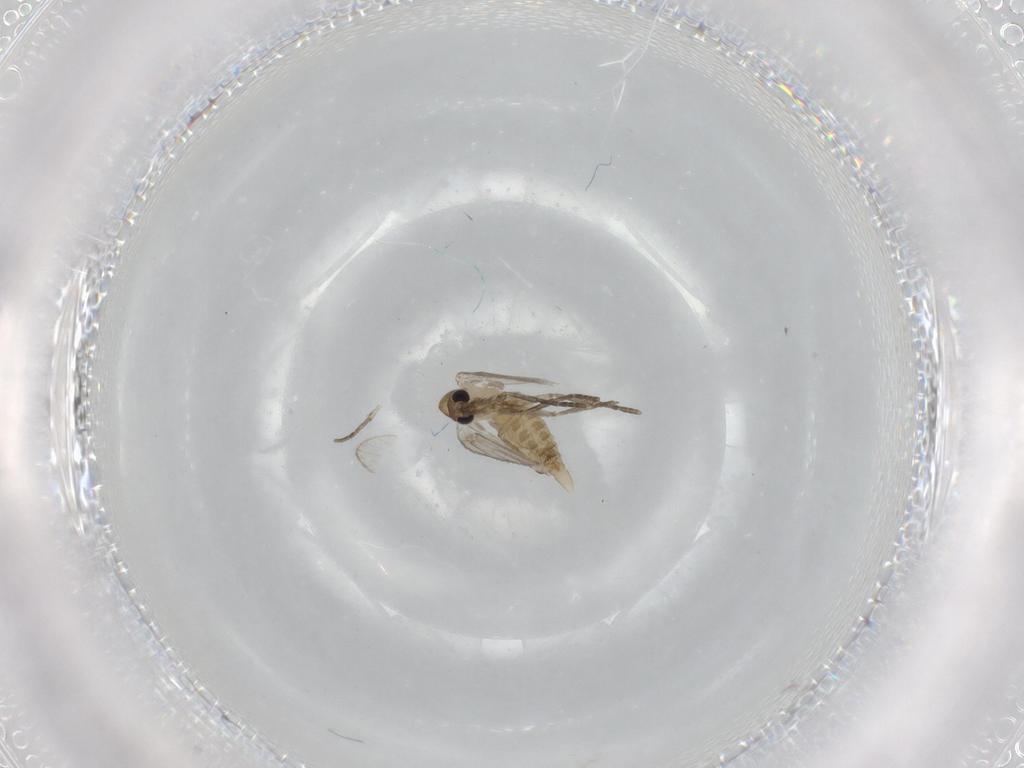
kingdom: Animalia
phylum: Arthropoda
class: Insecta
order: Diptera
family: Psychodidae
